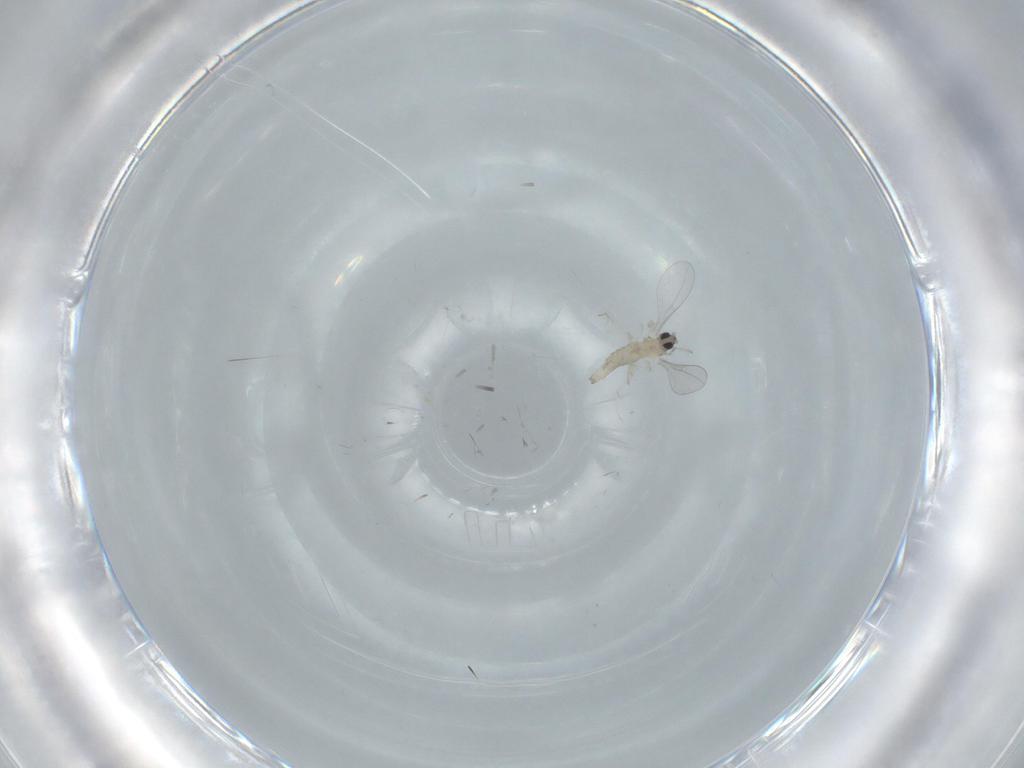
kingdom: Animalia
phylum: Arthropoda
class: Insecta
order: Diptera
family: Cecidomyiidae
